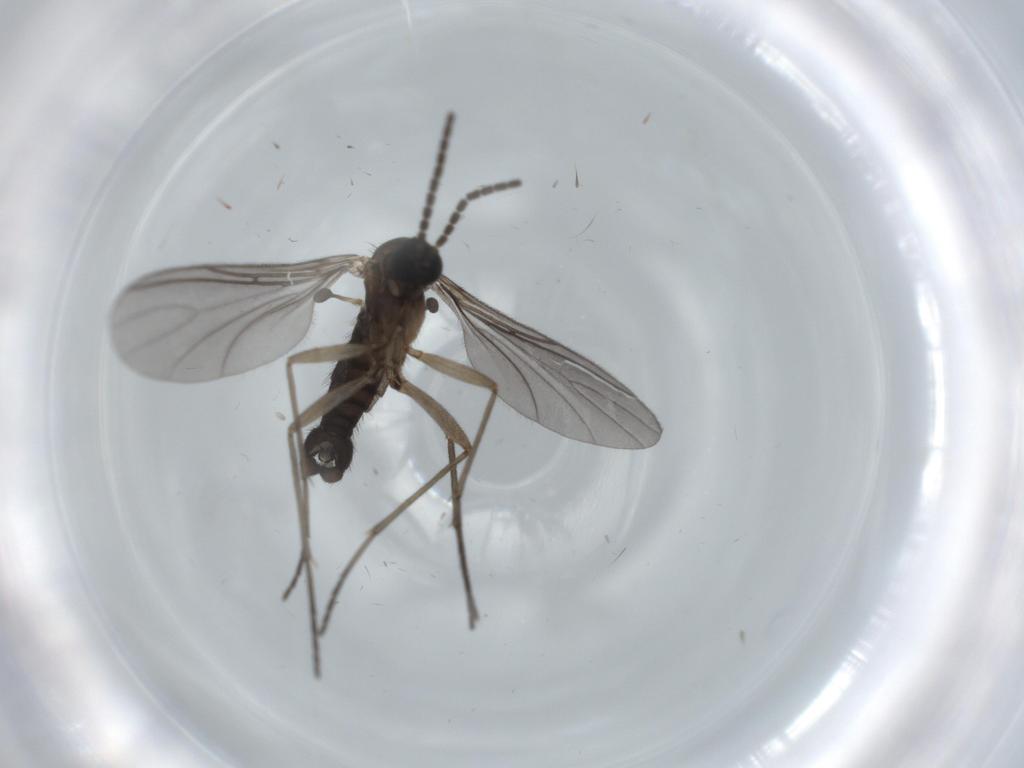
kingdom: Animalia
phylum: Arthropoda
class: Insecta
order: Diptera
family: Sciaridae
